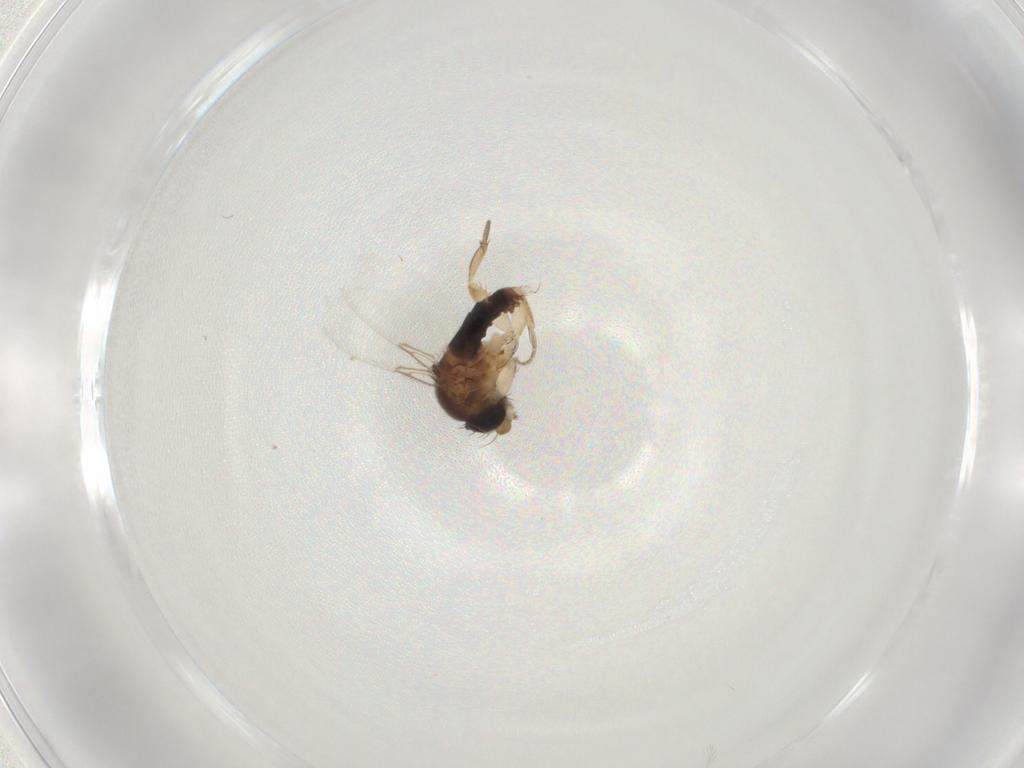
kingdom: Animalia
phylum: Arthropoda
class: Insecta
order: Diptera
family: Phoridae
